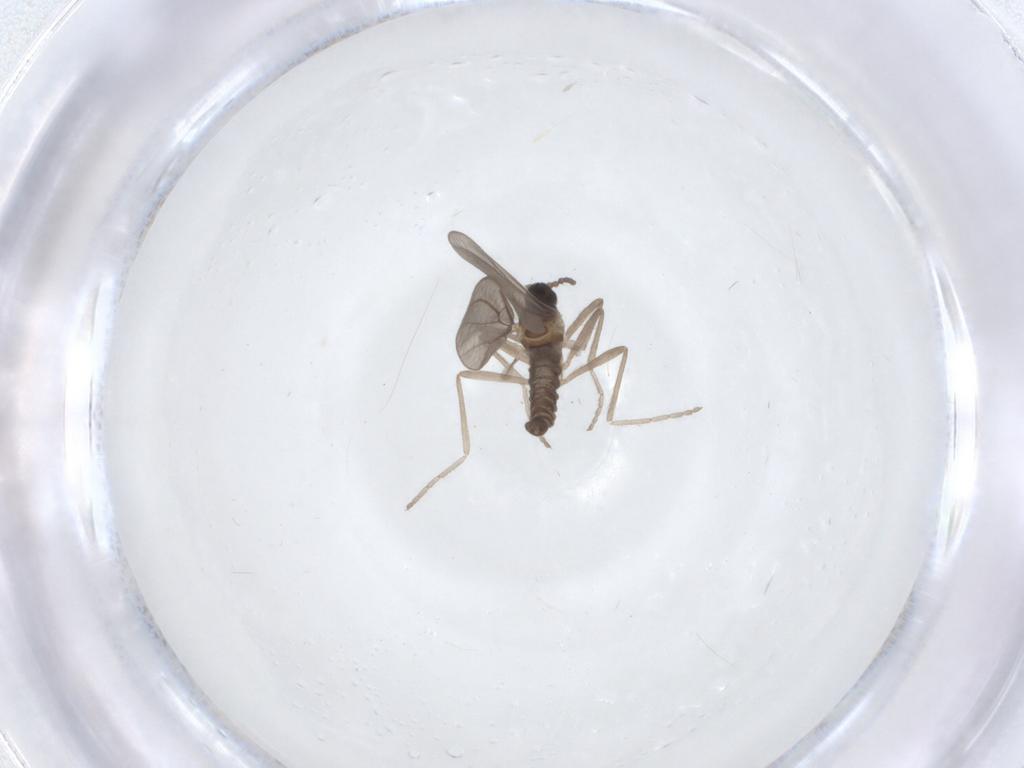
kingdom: Animalia
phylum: Arthropoda
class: Insecta
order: Diptera
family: Cecidomyiidae
